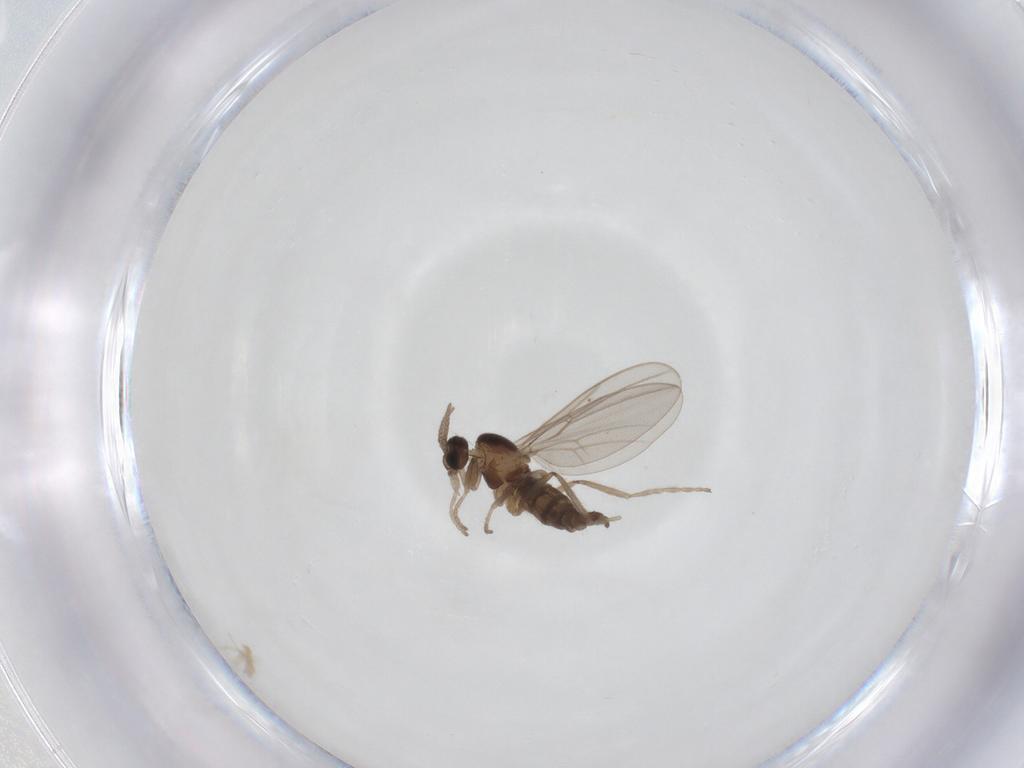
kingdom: Animalia
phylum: Arthropoda
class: Insecta
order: Diptera
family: Cecidomyiidae
